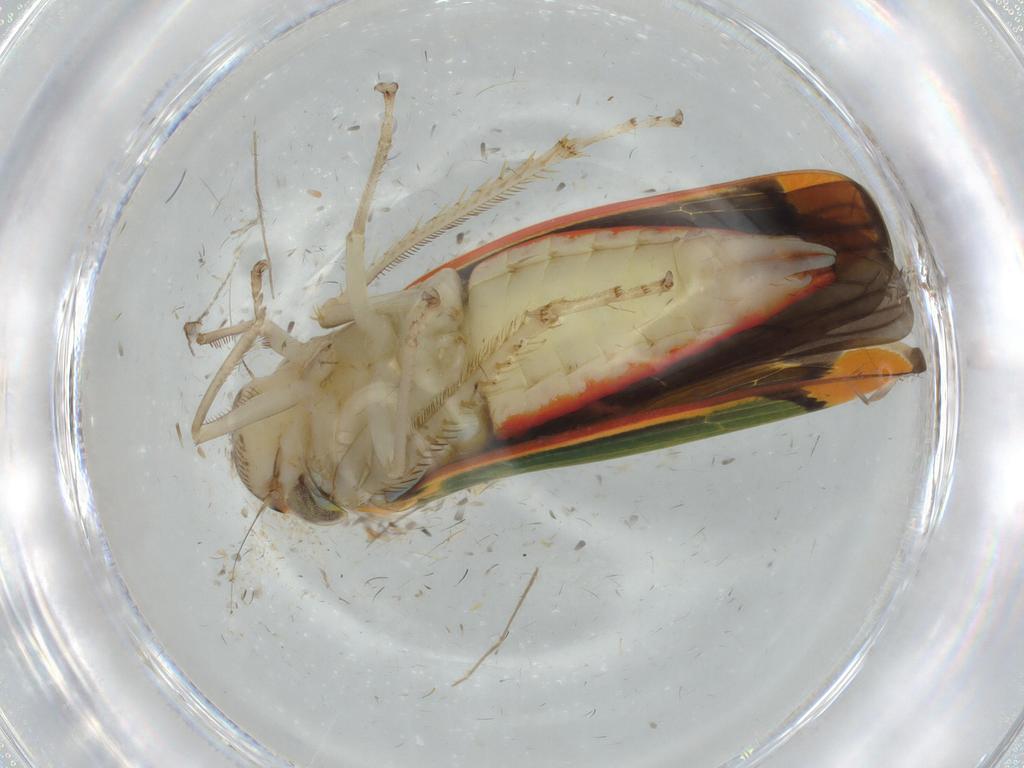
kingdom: Animalia
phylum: Arthropoda
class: Insecta
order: Hemiptera
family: Cicadellidae
